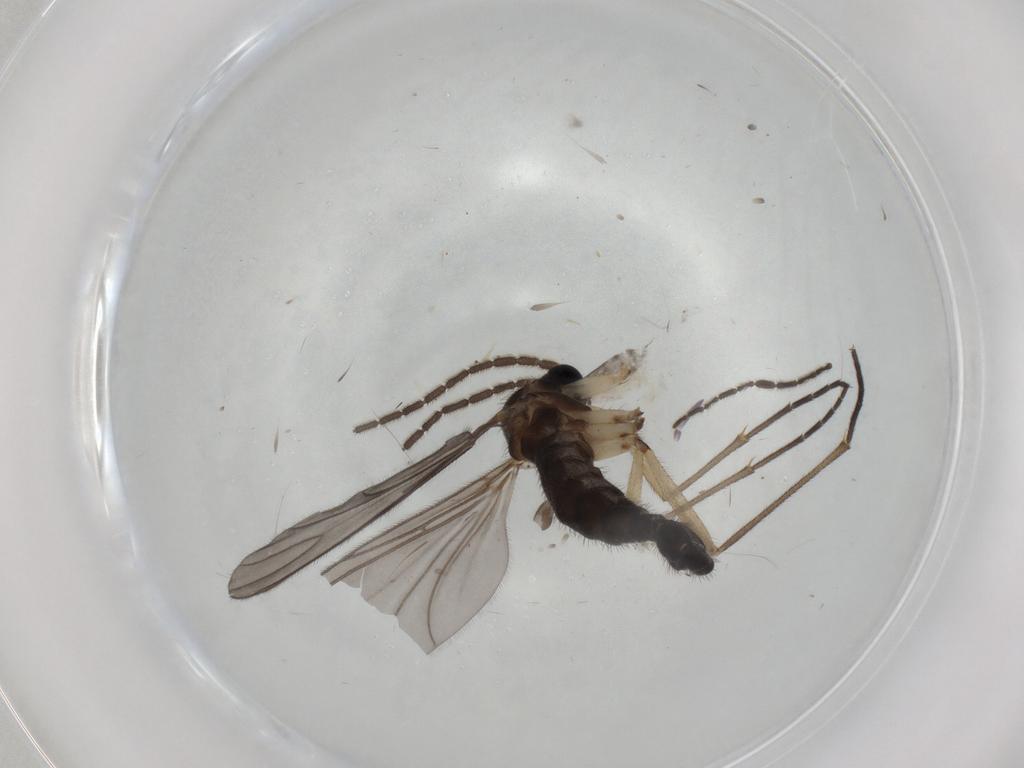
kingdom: Animalia
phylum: Arthropoda
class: Insecta
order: Diptera
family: Sciaridae
